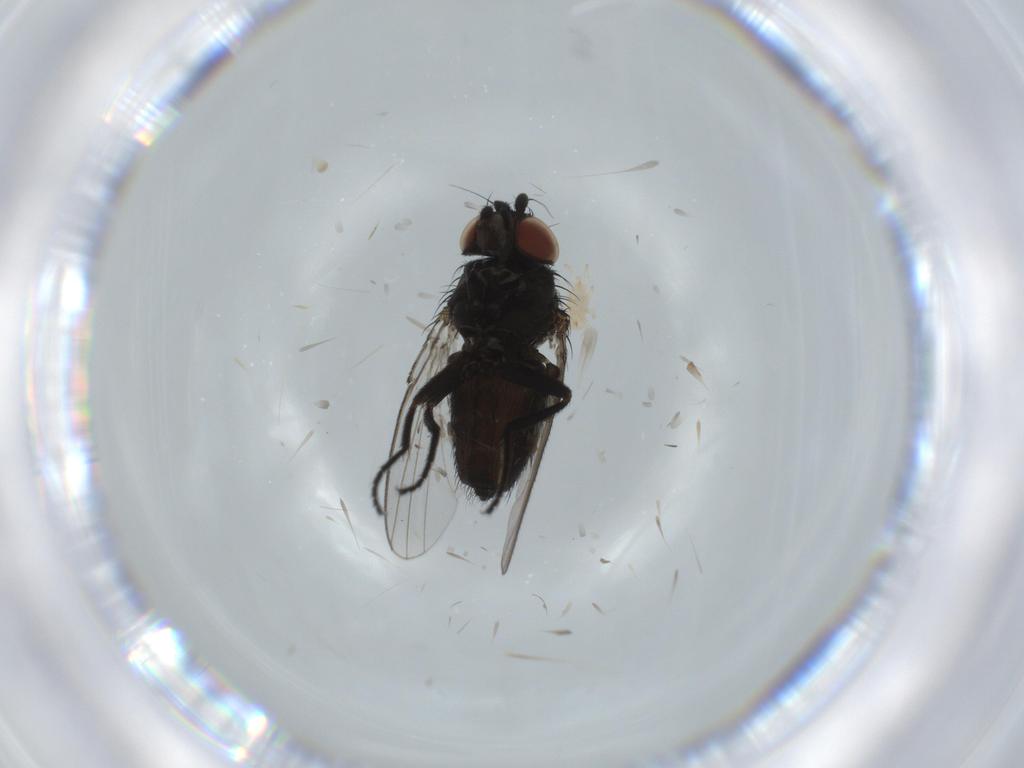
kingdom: Animalia
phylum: Arthropoda
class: Insecta
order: Diptera
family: Milichiidae
